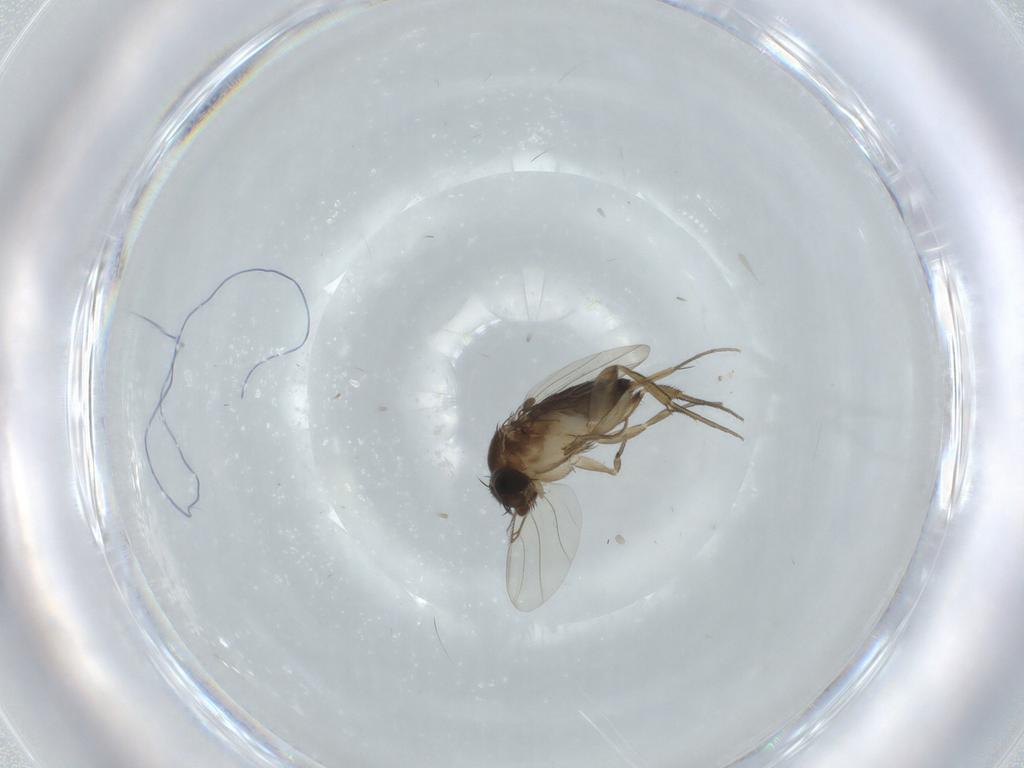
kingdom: Animalia
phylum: Arthropoda
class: Insecta
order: Diptera
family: Phoridae
